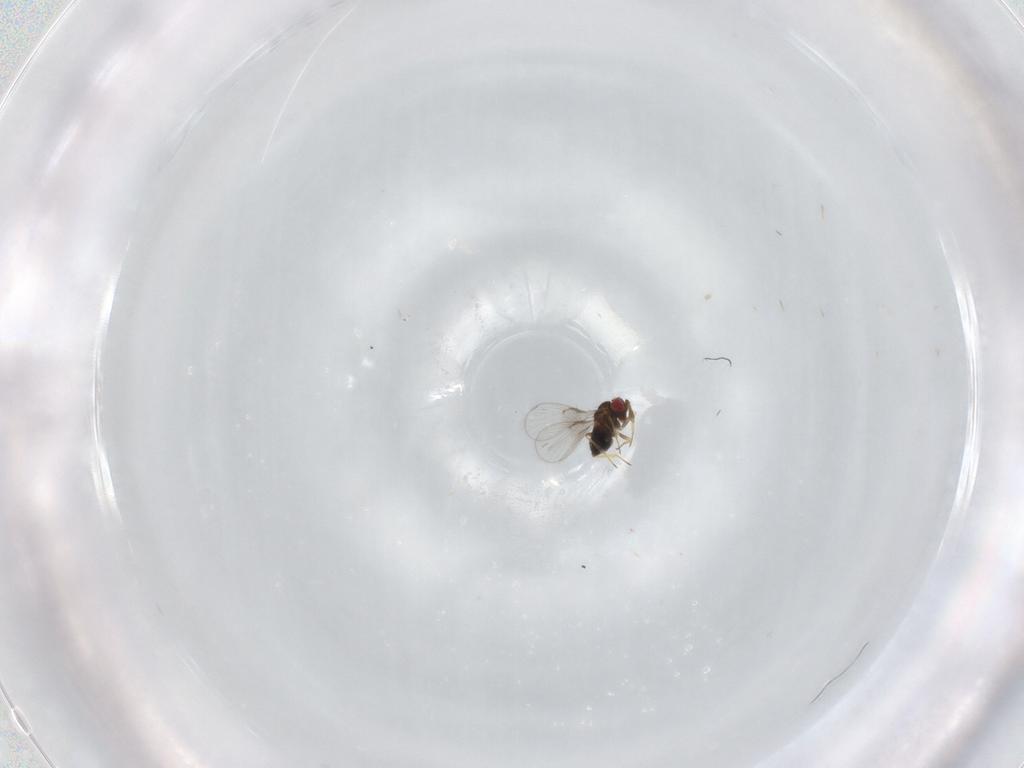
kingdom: Animalia
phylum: Arthropoda
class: Insecta
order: Hymenoptera
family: Trichogrammatidae
